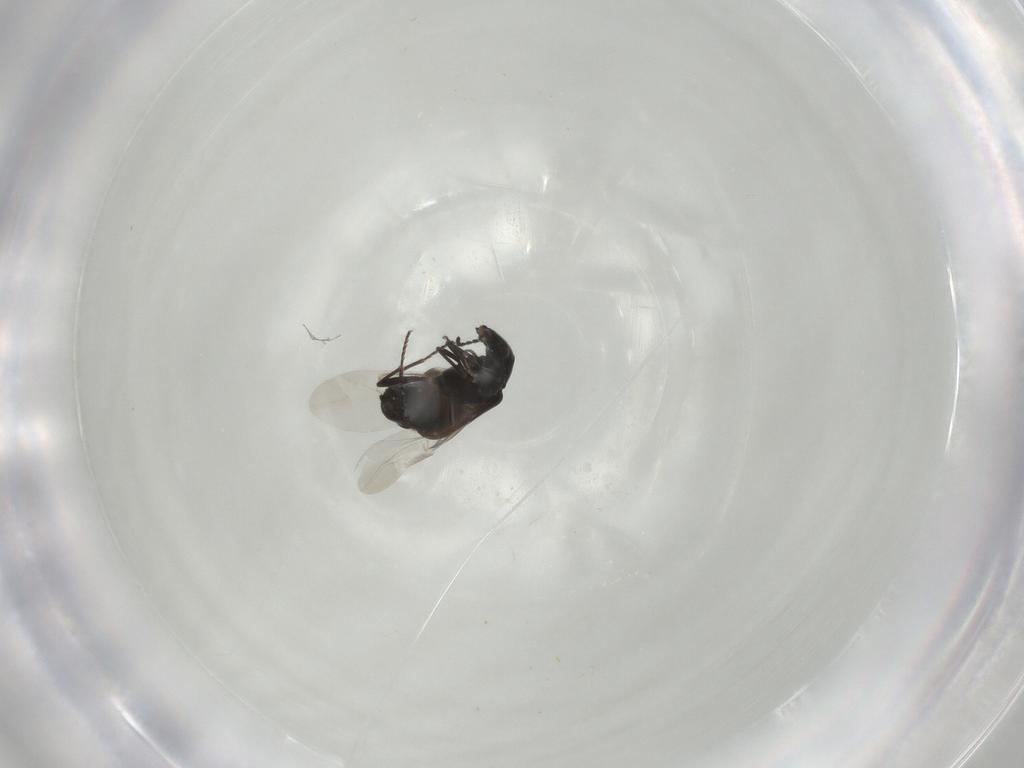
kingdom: Animalia
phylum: Arthropoda
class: Insecta
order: Coleoptera
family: Melyridae
